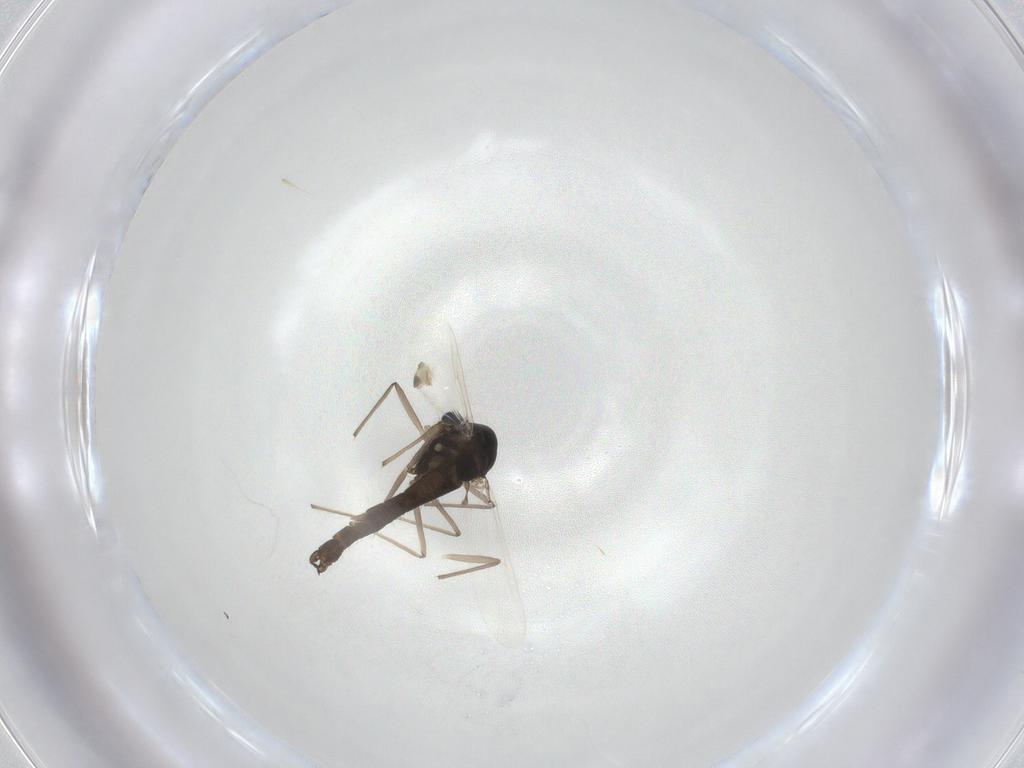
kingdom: Animalia
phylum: Arthropoda
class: Insecta
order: Diptera
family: Chironomidae
